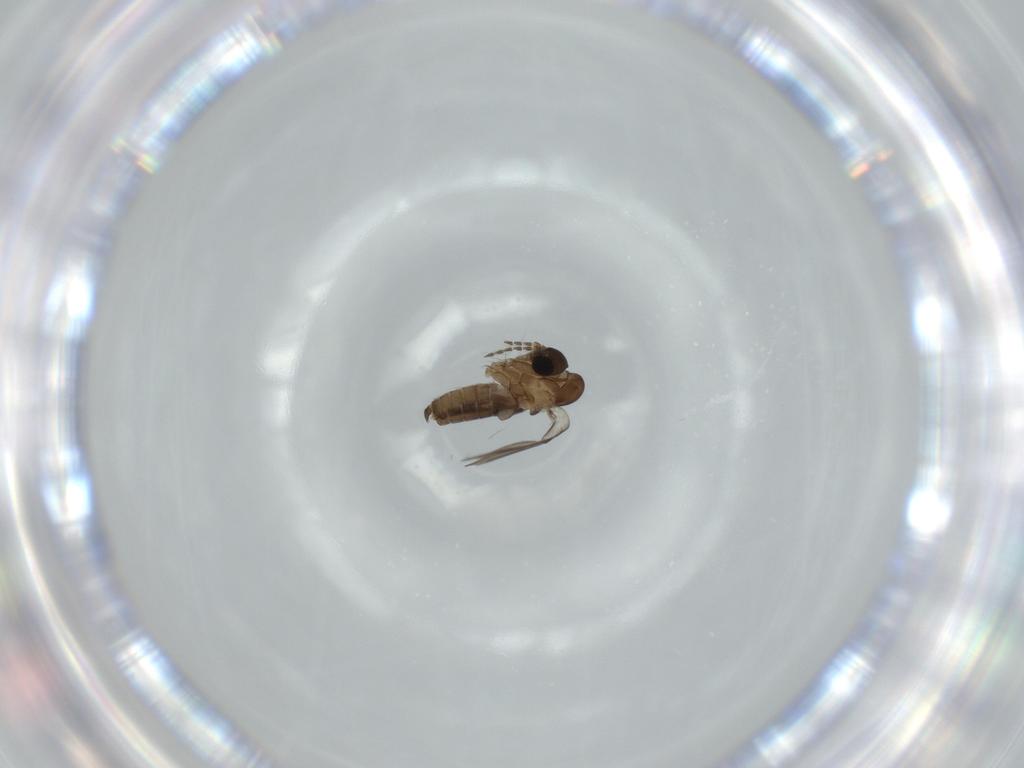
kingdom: Animalia
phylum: Arthropoda
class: Insecta
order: Diptera
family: Psychodidae
